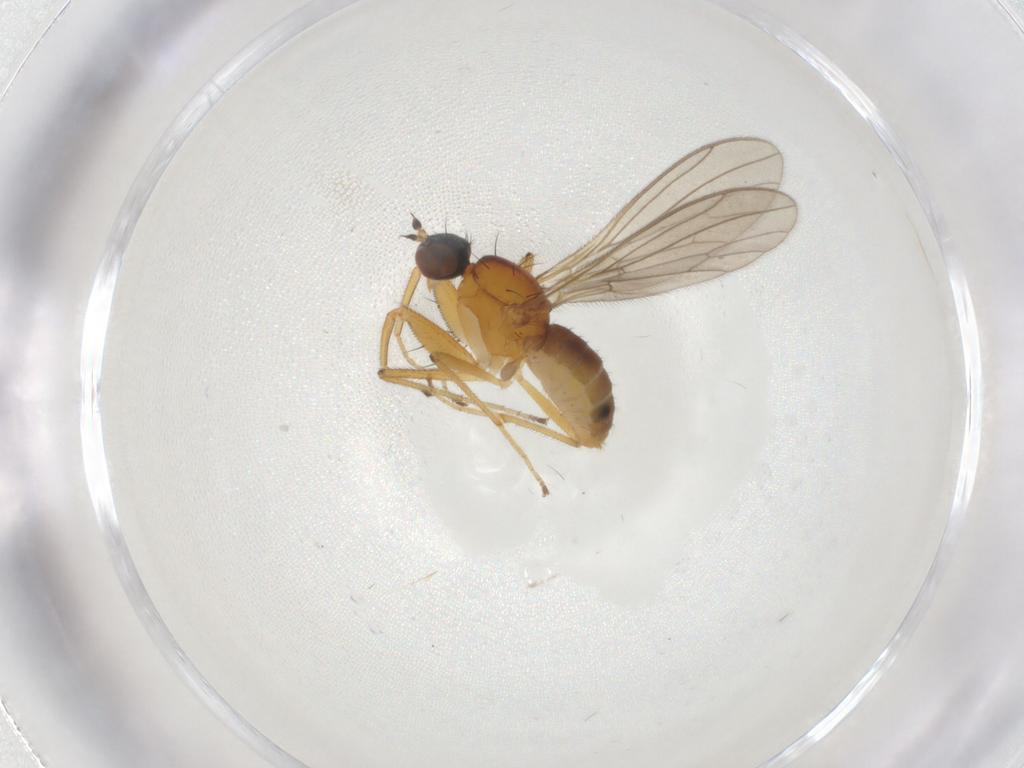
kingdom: Animalia
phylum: Arthropoda
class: Insecta
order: Diptera
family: Empididae
